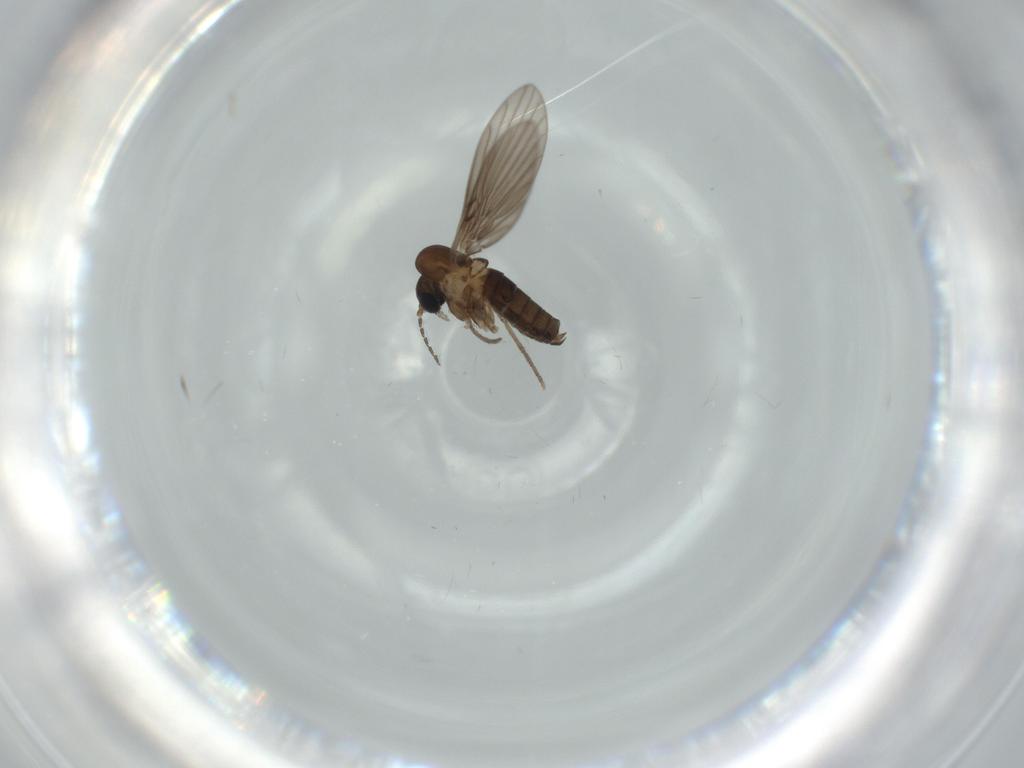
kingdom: Animalia
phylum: Arthropoda
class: Insecta
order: Diptera
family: Psychodidae
